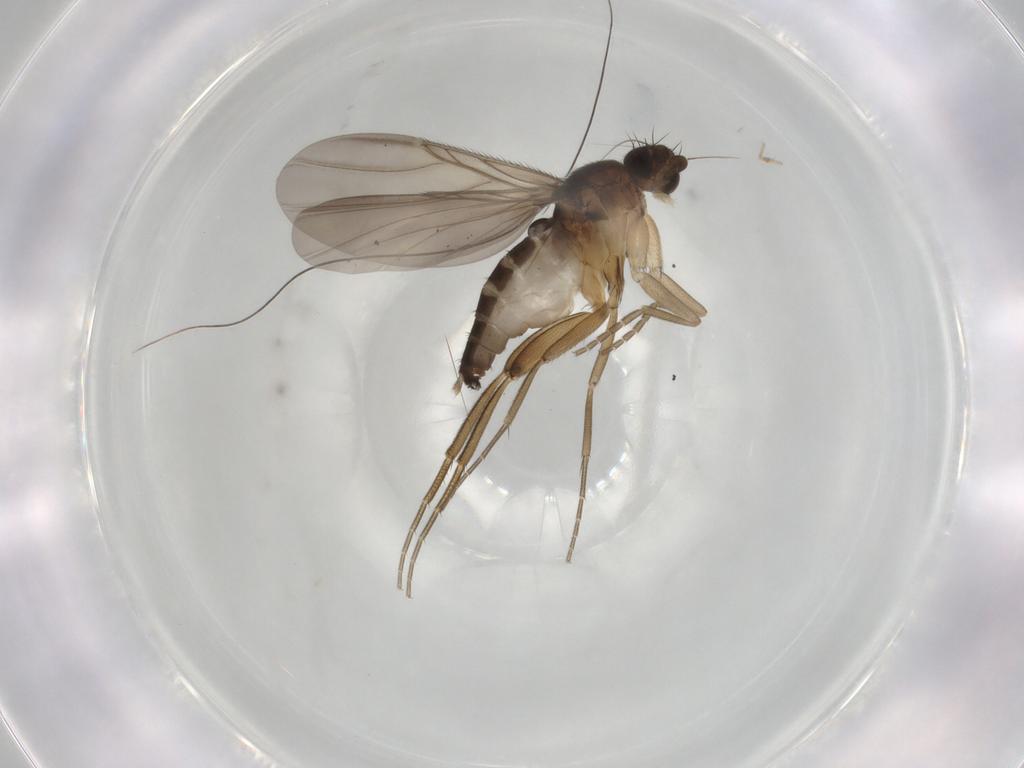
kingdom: Animalia
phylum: Arthropoda
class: Insecta
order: Diptera
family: Phoridae
